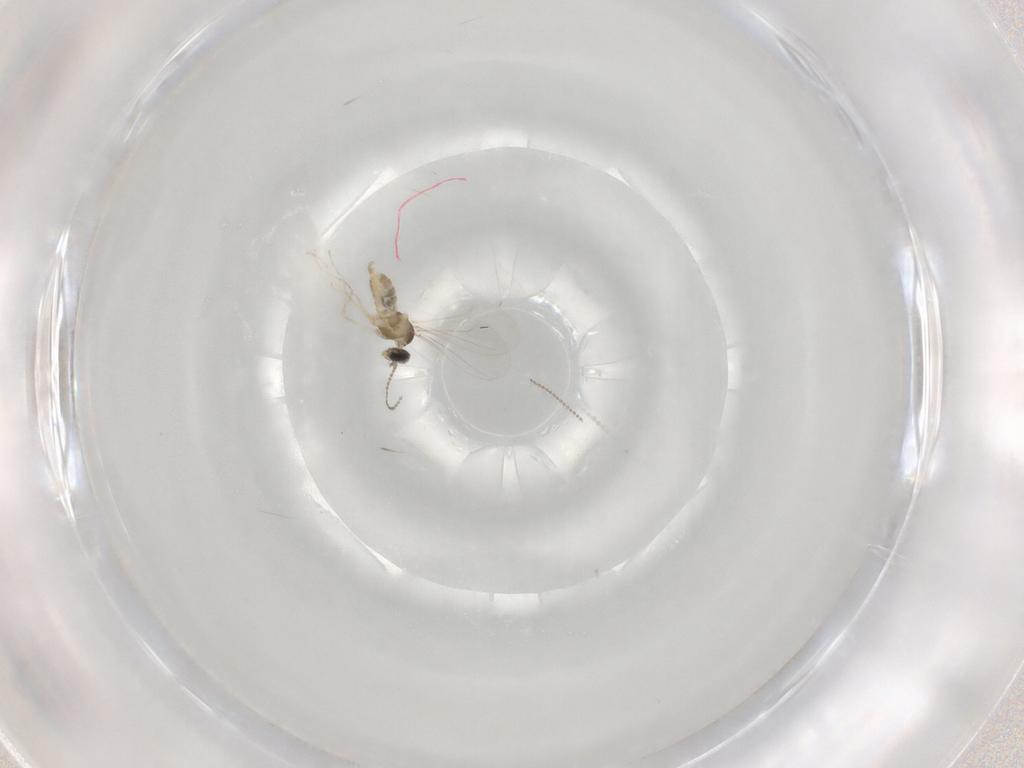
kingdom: Animalia
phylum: Arthropoda
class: Insecta
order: Diptera
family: Cecidomyiidae
